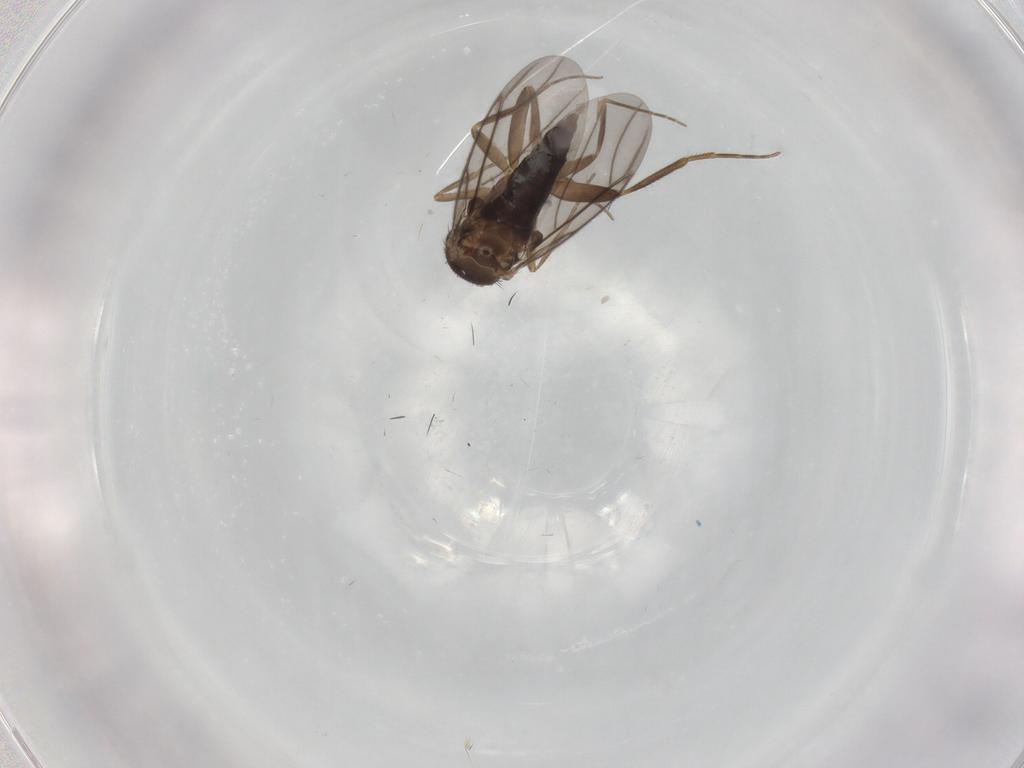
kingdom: Animalia
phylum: Arthropoda
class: Insecta
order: Diptera
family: Phoridae
